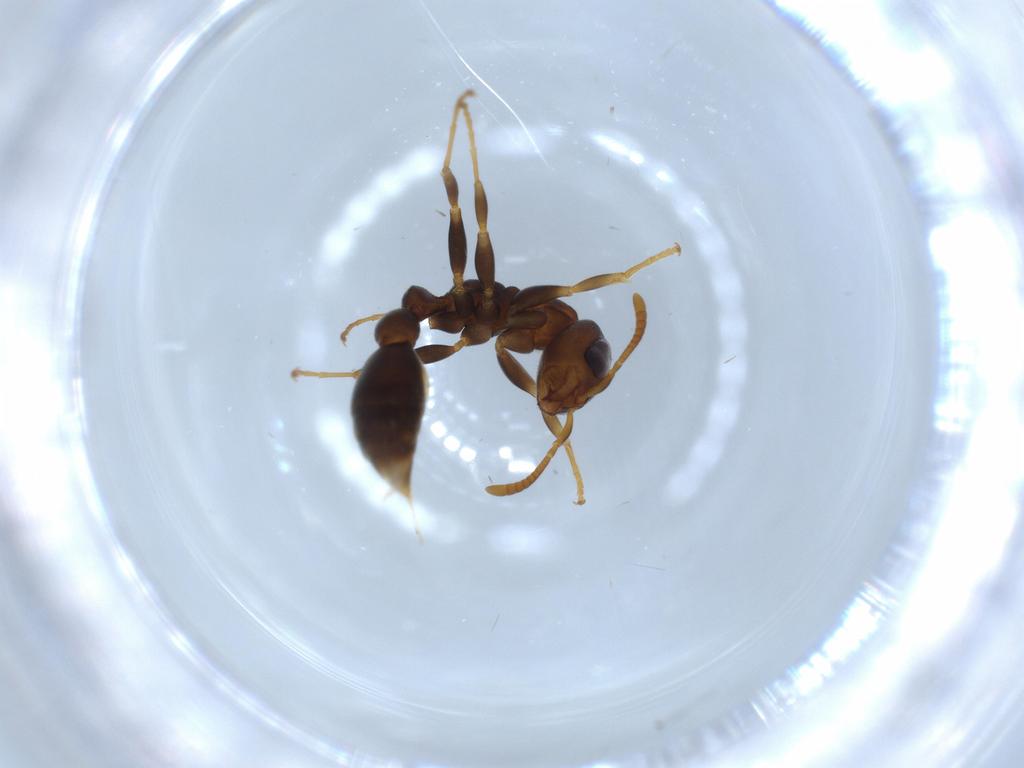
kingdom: Animalia
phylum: Arthropoda
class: Insecta
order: Hymenoptera
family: Formicidae
